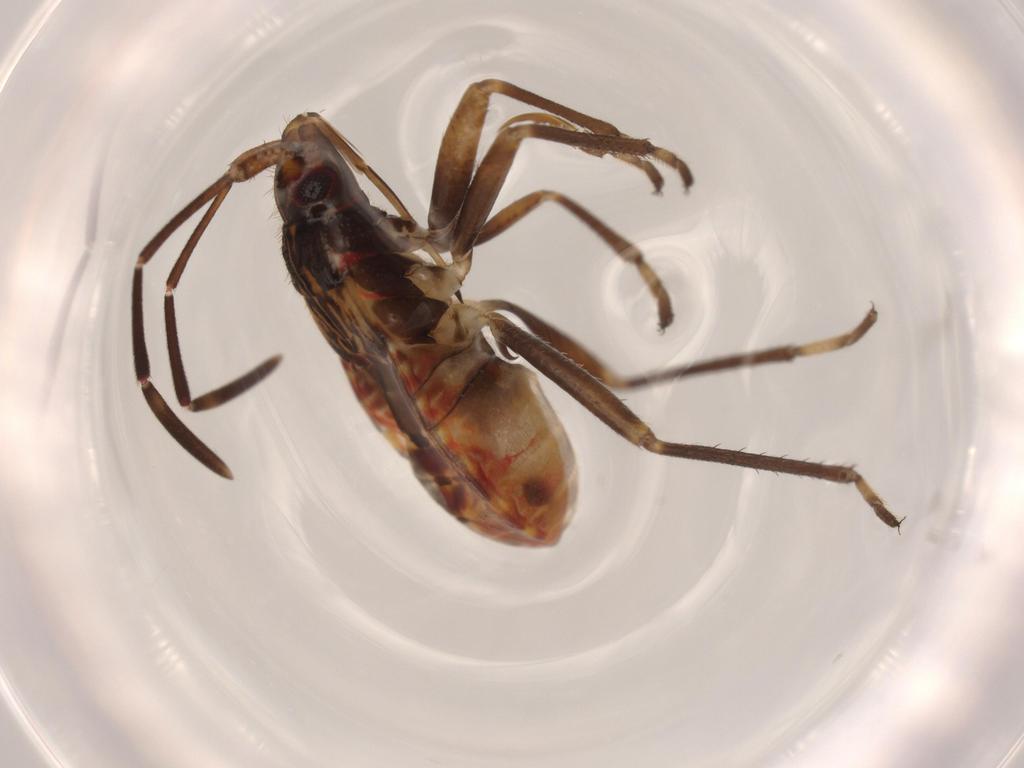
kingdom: Animalia
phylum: Arthropoda
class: Insecta
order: Hemiptera
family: Rhyparochromidae
